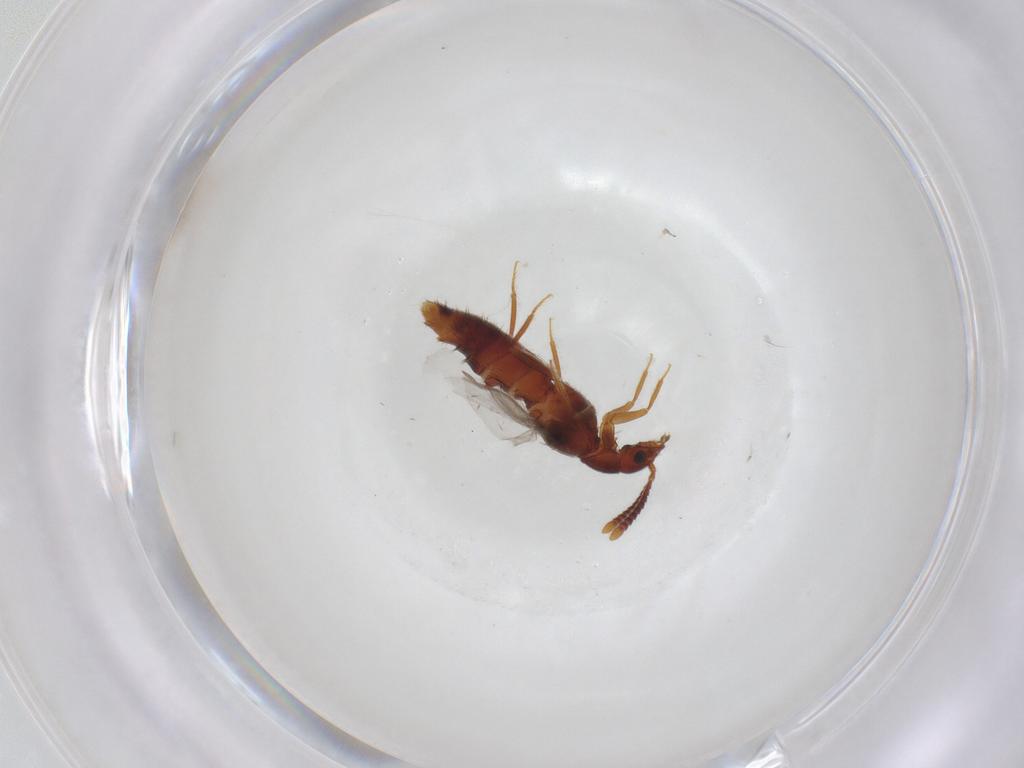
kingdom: Animalia
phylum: Arthropoda
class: Insecta
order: Coleoptera
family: Staphylinidae
